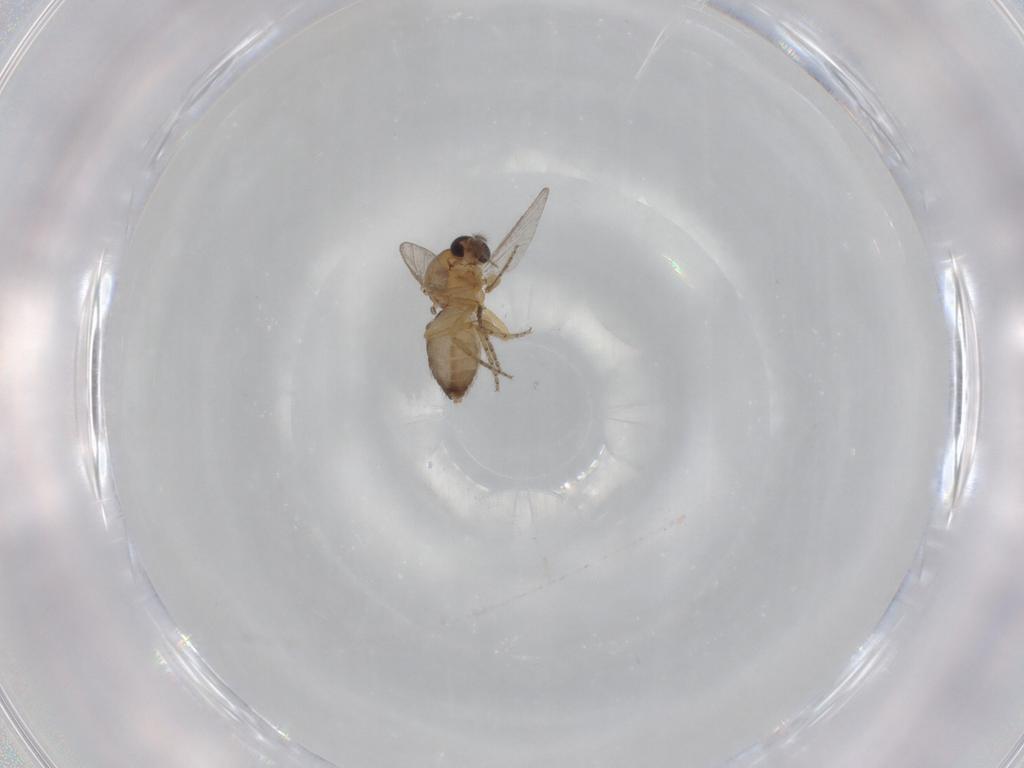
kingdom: Animalia
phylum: Arthropoda
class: Insecta
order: Diptera
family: Ceratopogonidae
